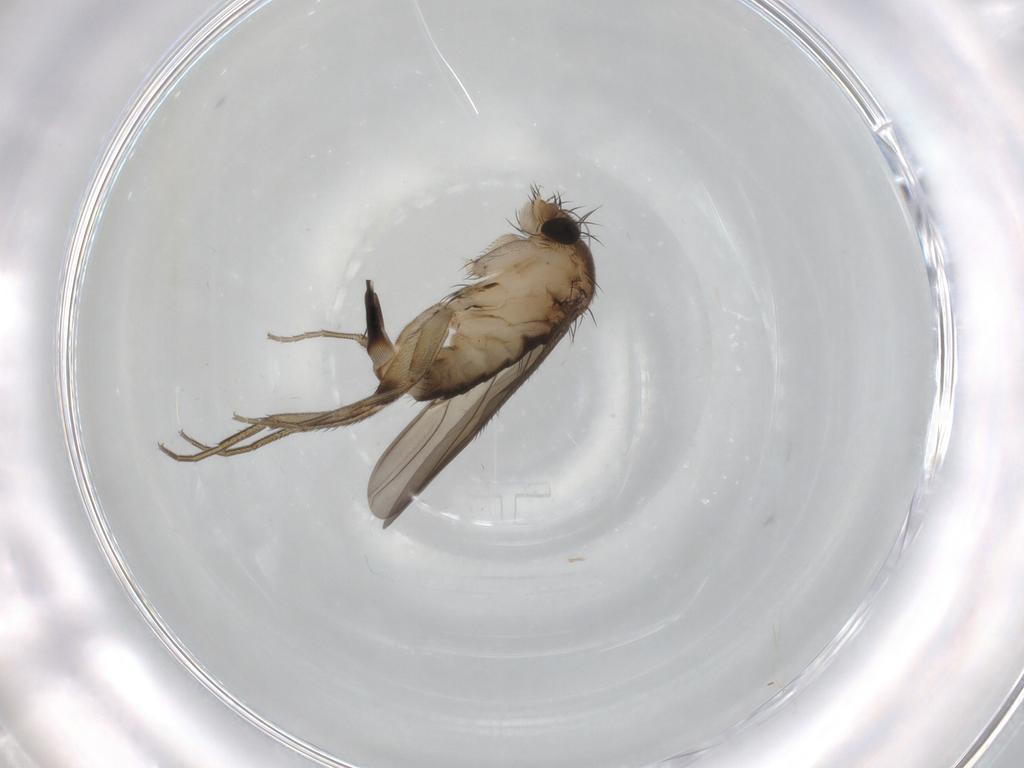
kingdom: Animalia
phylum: Arthropoda
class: Insecta
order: Diptera
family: Phoridae
